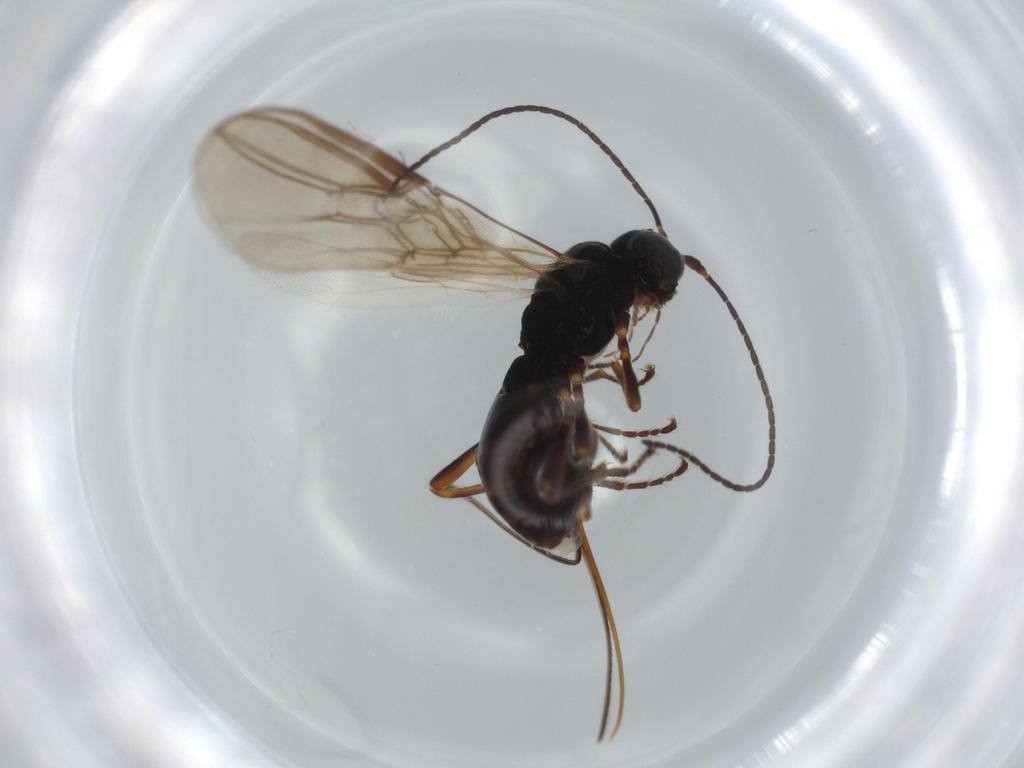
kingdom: Animalia
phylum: Arthropoda
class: Insecta
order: Hymenoptera
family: Braconidae
